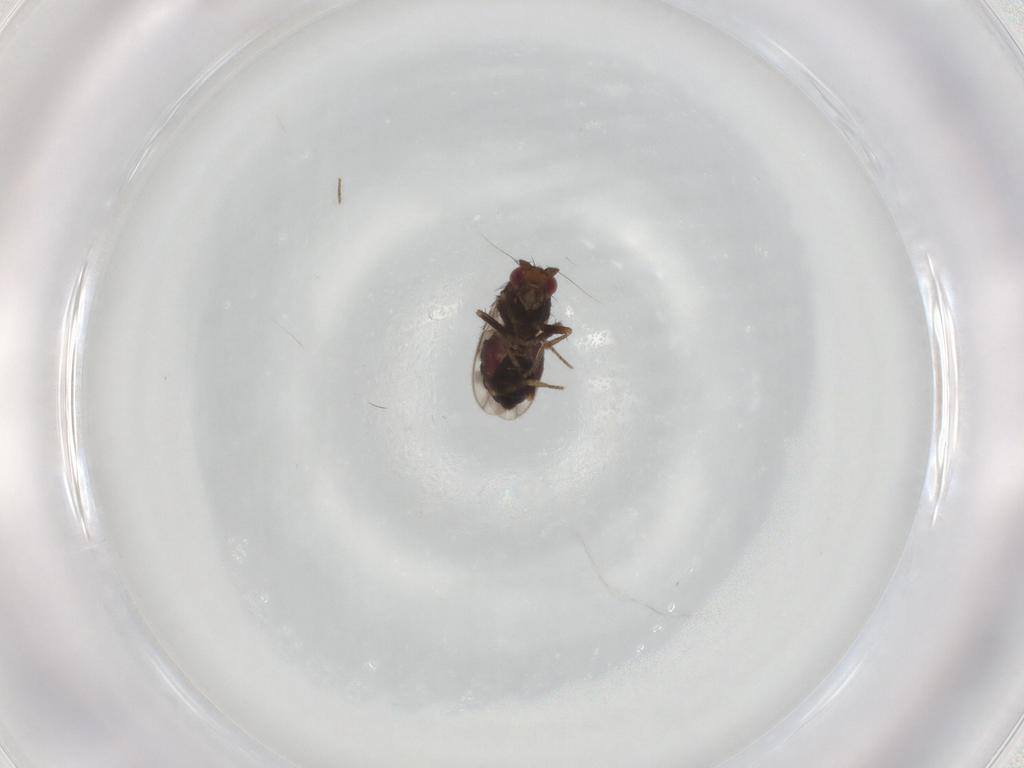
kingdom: Animalia
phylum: Arthropoda
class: Insecta
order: Diptera
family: Sphaeroceridae
